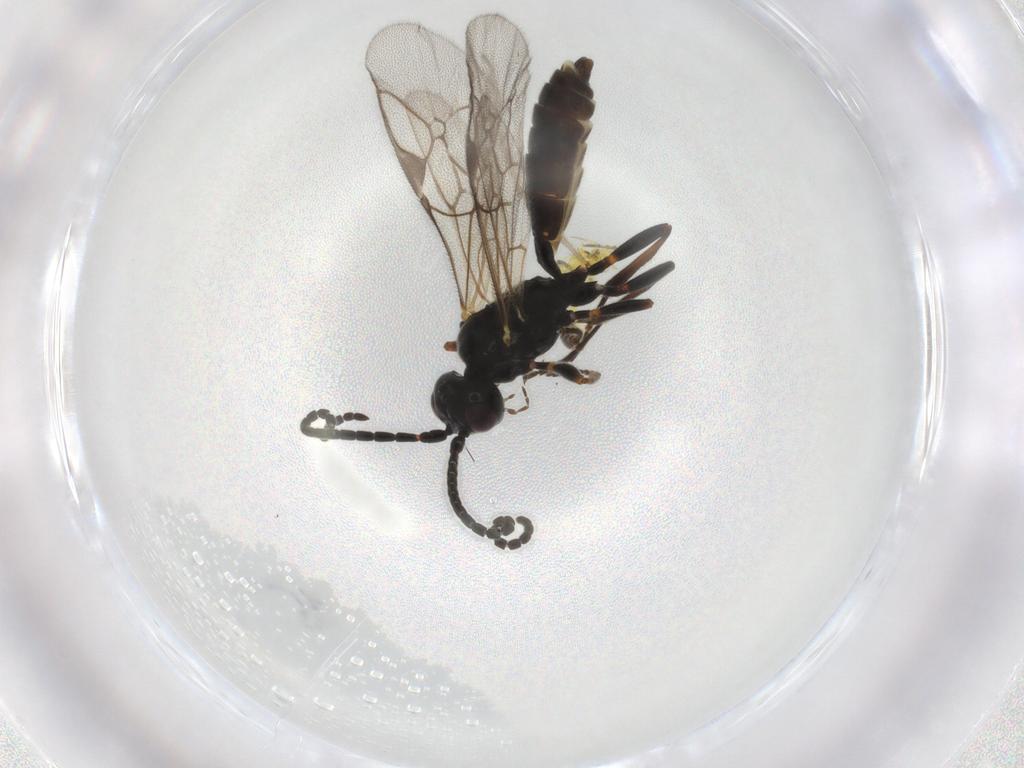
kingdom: Animalia
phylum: Arthropoda
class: Insecta
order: Hymenoptera
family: Ichneumonidae
